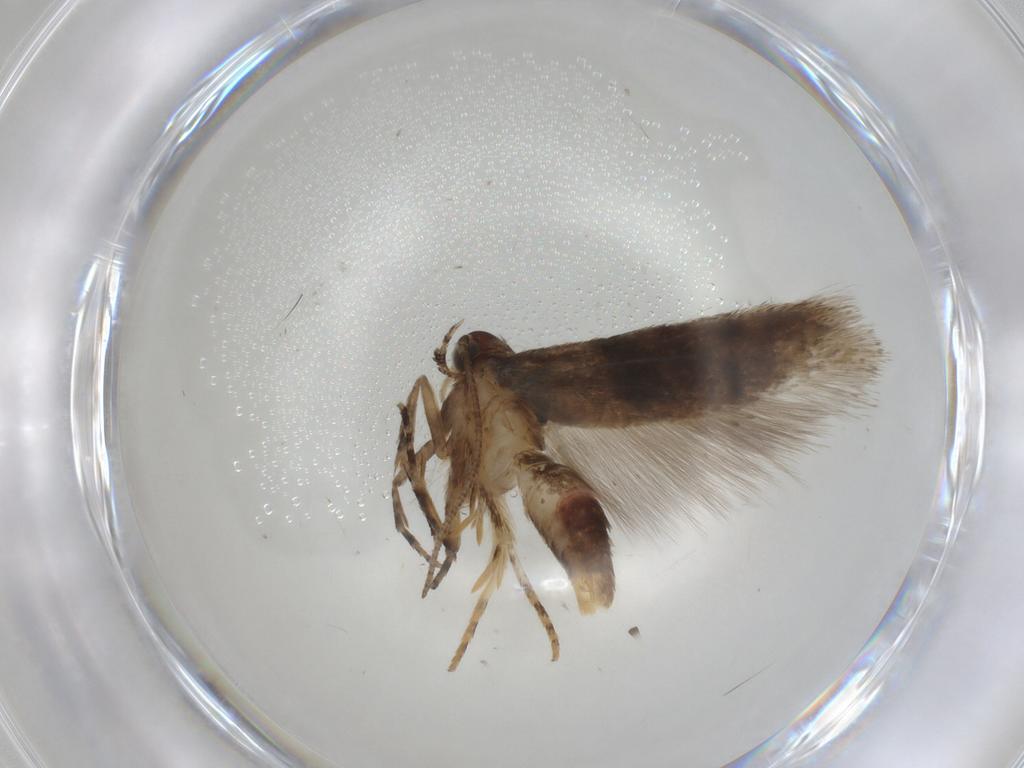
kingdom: Animalia
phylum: Arthropoda
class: Insecta
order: Lepidoptera
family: Gelechiidae
